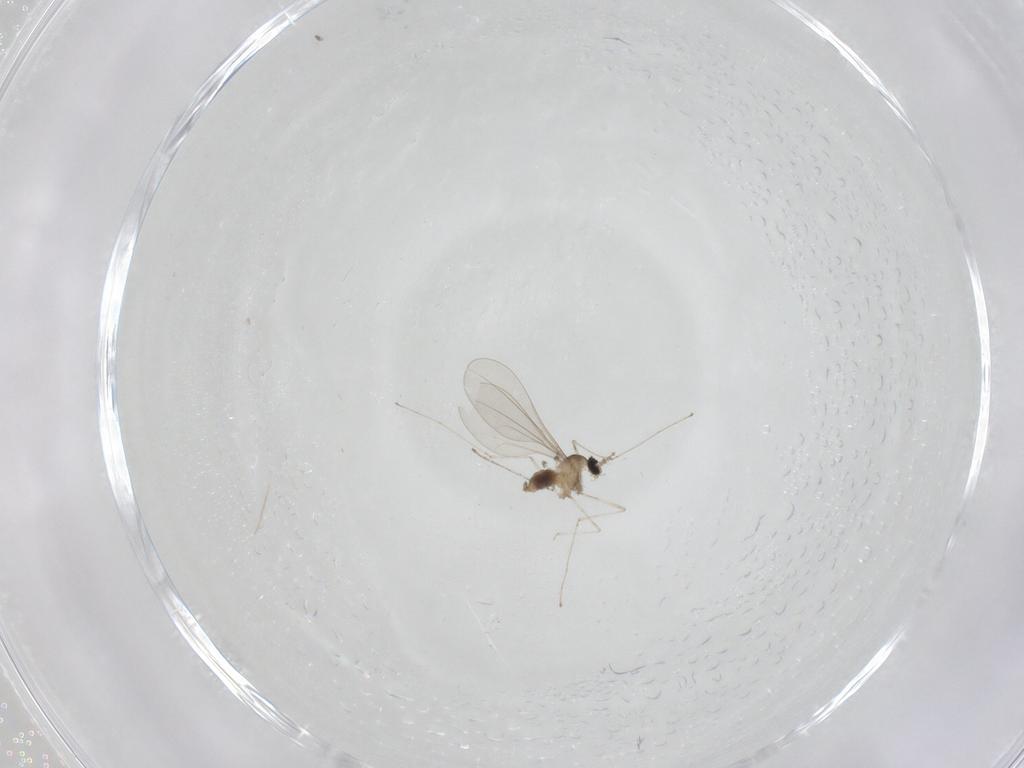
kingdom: Animalia
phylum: Arthropoda
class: Insecta
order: Diptera
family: Cecidomyiidae
